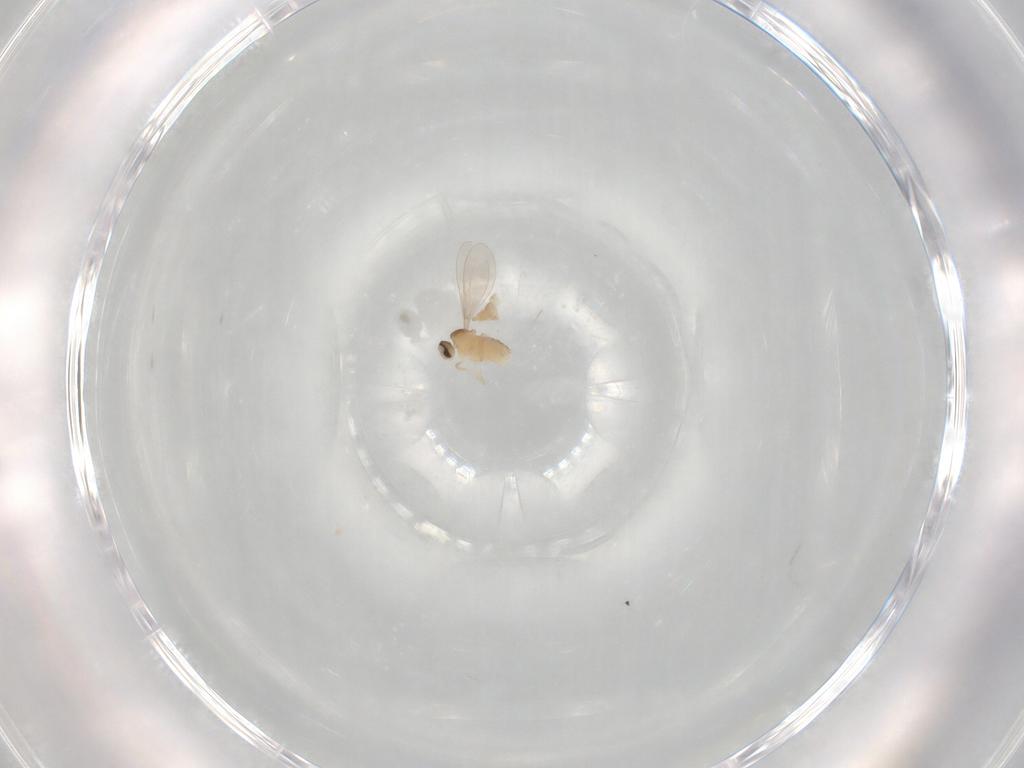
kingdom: Animalia
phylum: Arthropoda
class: Insecta
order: Diptera
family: Cecidomyiidae
